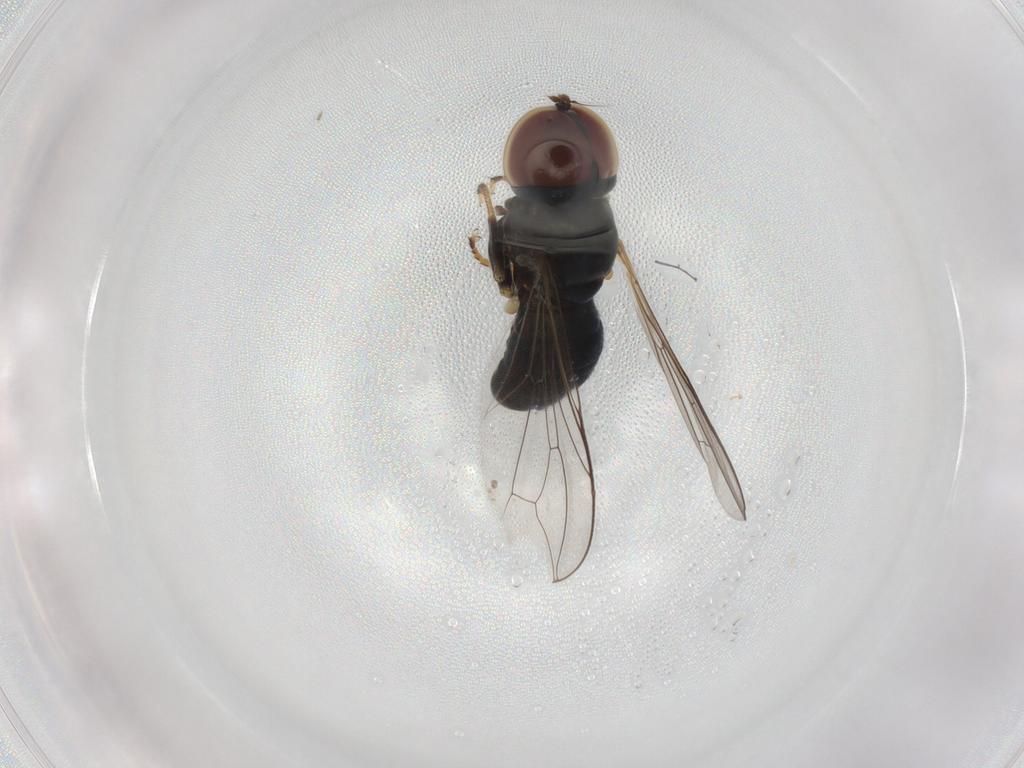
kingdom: Animalia
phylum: Arthropoda
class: Insecta
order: Diptera
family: Pipunculidae
